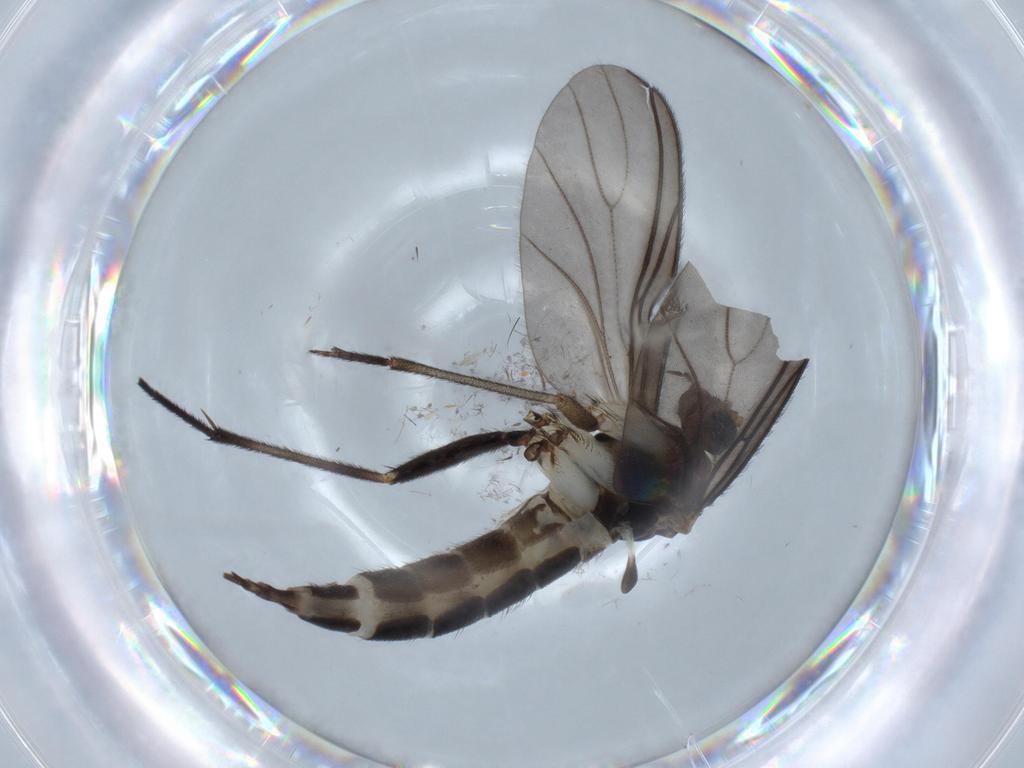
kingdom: Animalia
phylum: Arthropoda
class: Insecta
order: Diptera
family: Sciaridae
